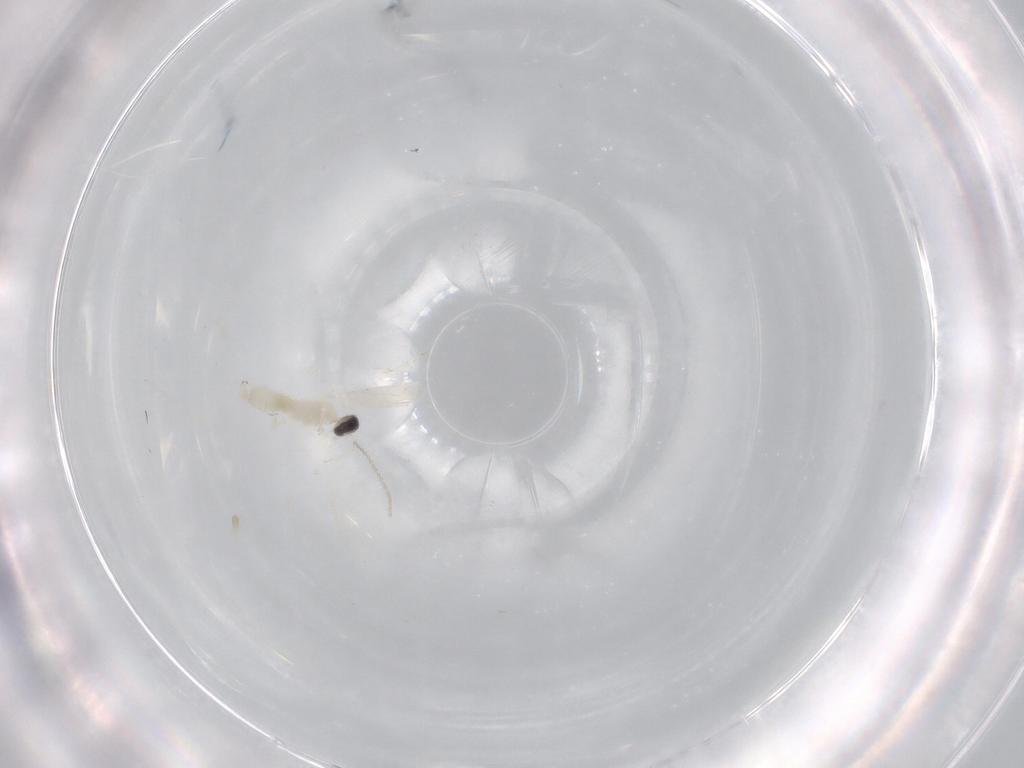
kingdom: Animalia
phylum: Arthropoda
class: Insecta
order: Diptera
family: Cecidomyiidae
